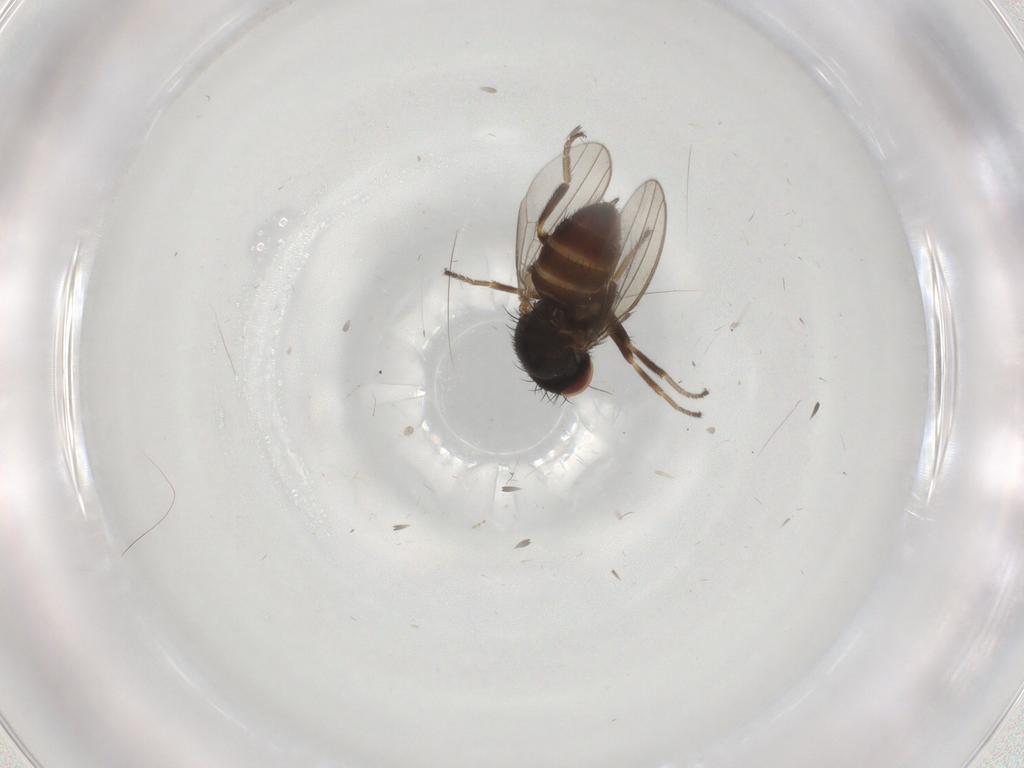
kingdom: Animalia
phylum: Arthropoda
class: Insecta
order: Diptera
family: Milichiidae
